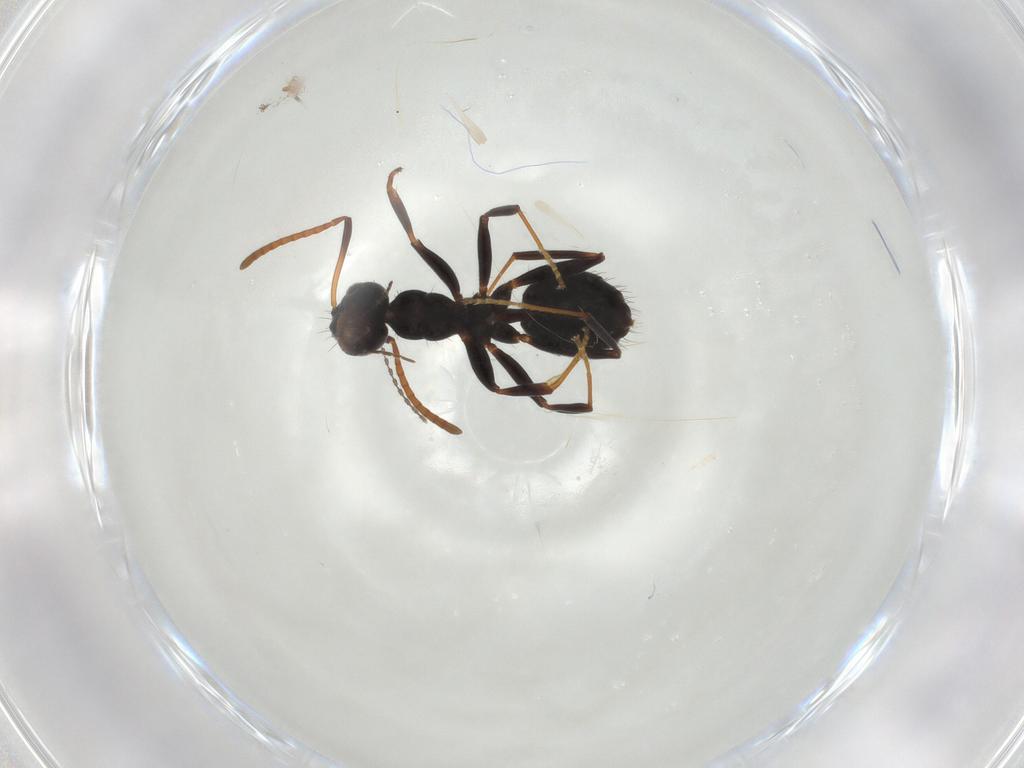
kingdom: Animalia
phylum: Arthropoda
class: Insecta
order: Hymenoptera
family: Formicidae
